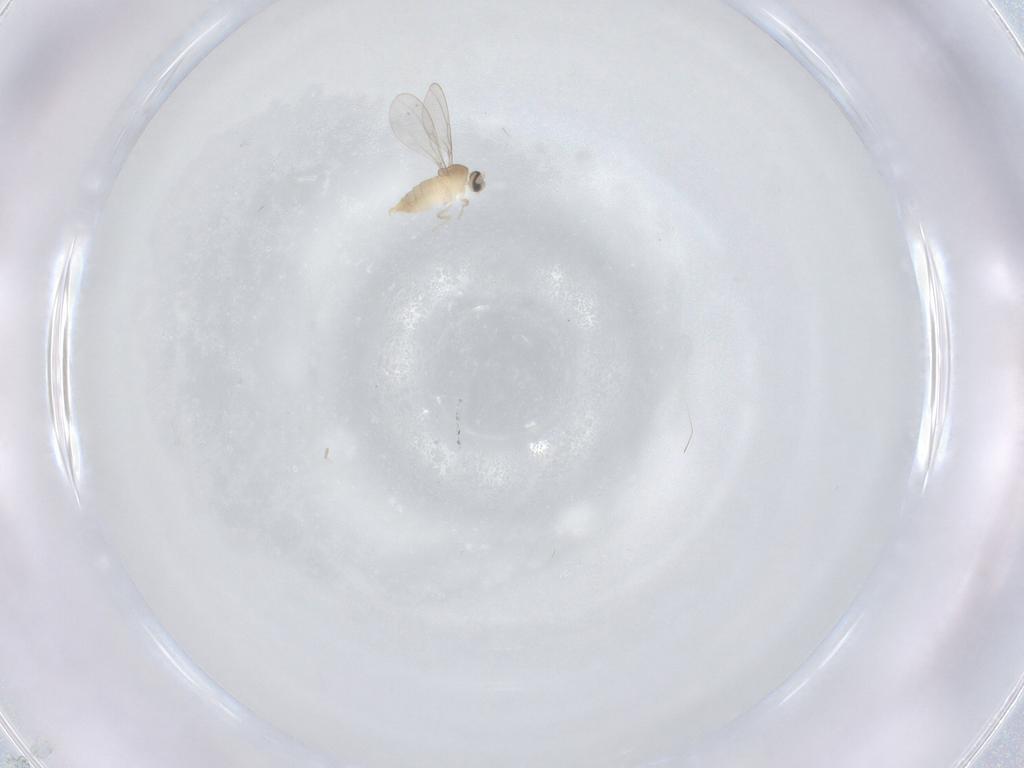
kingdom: Animalia
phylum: Arthropoda
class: Insecta
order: Diptera
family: Cecidomyiidae
